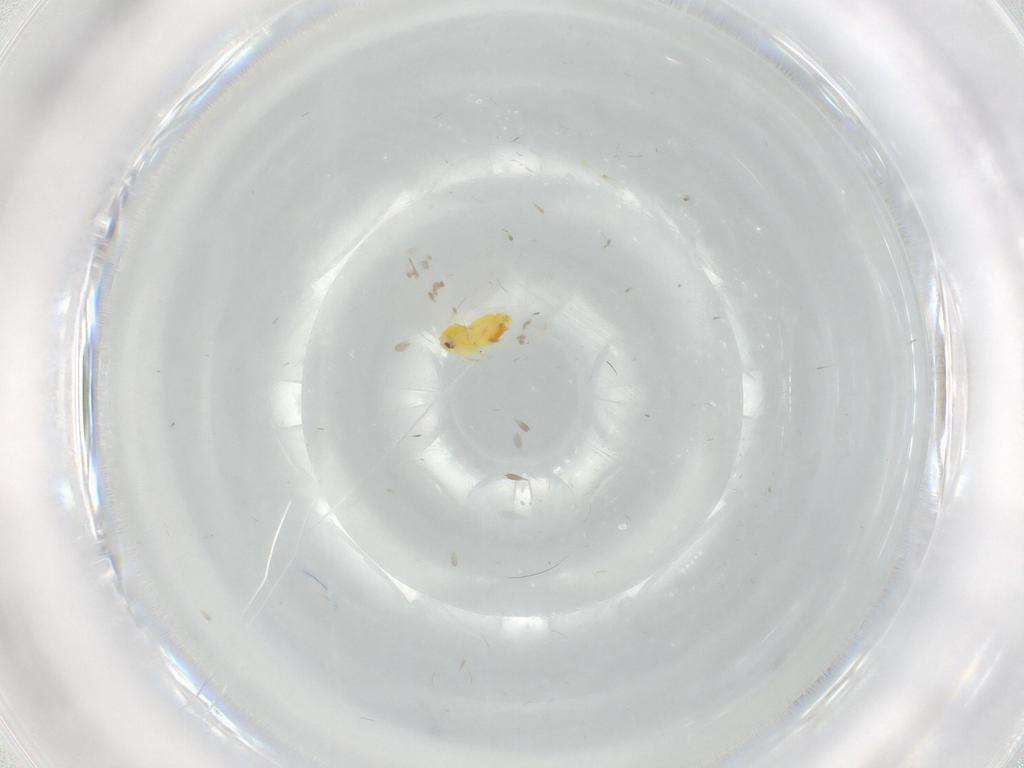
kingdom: Animalia
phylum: Arthropoda
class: Insecta
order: Hemiptera
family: Aleyrodidae
